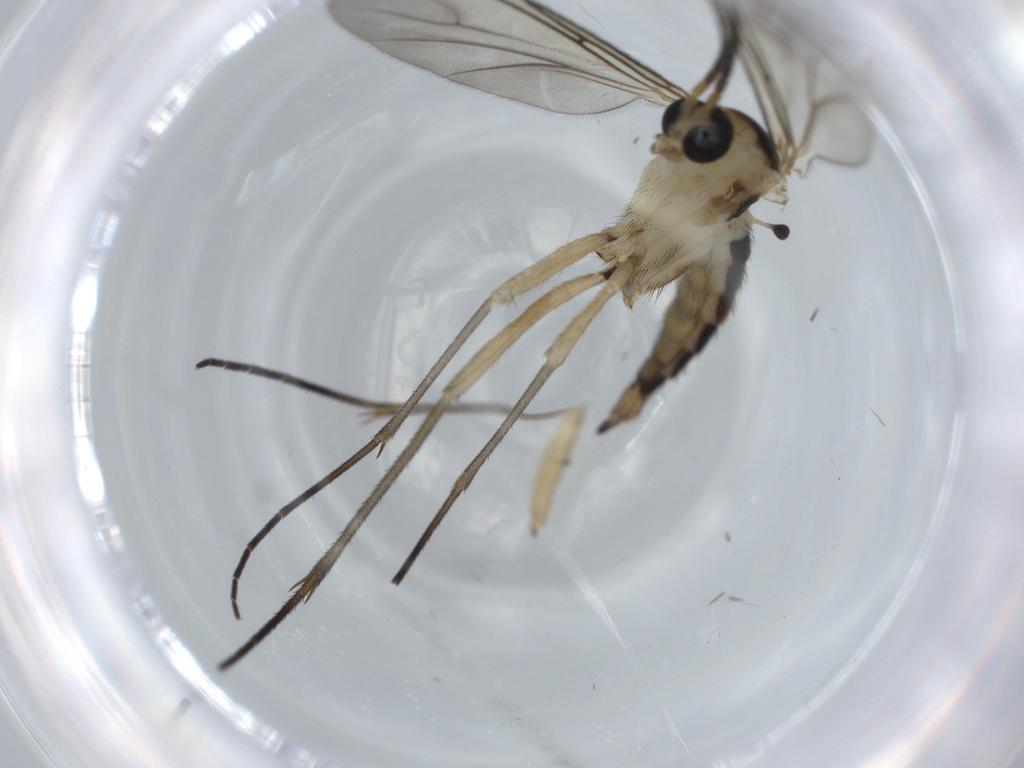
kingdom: Animalia
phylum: Arthropoda
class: Insecta
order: Diptera
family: Sciaridae
